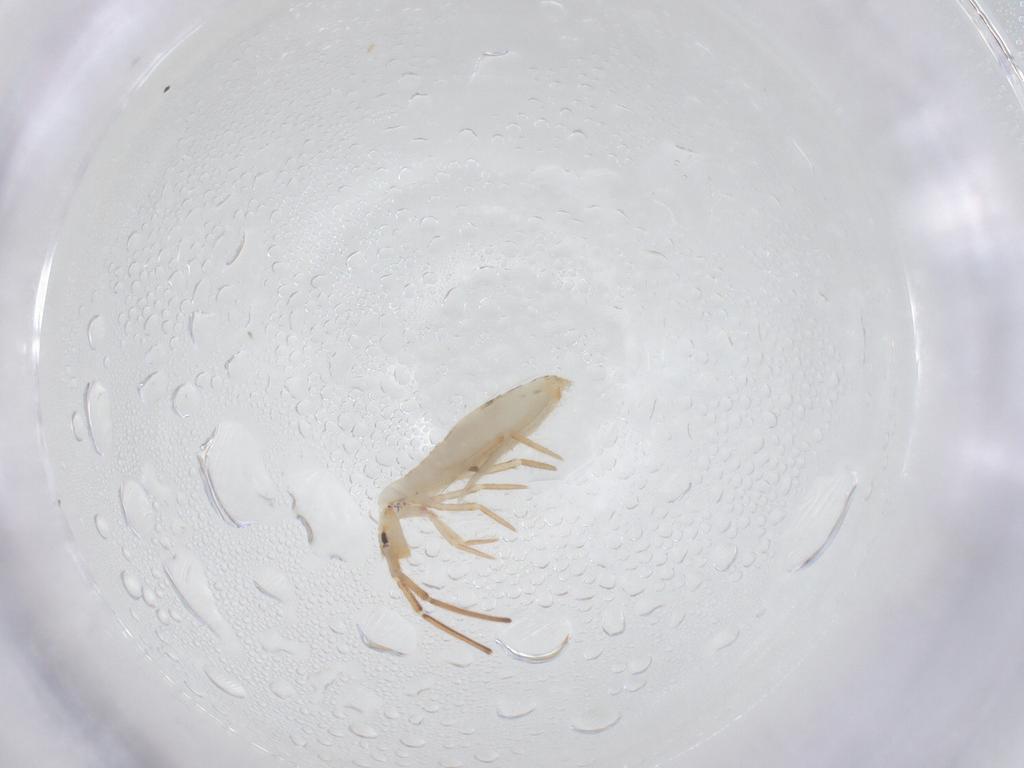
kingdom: Animalia
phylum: Arthropoda
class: Collembola
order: Entomobryomorpha
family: Entomobryidae
